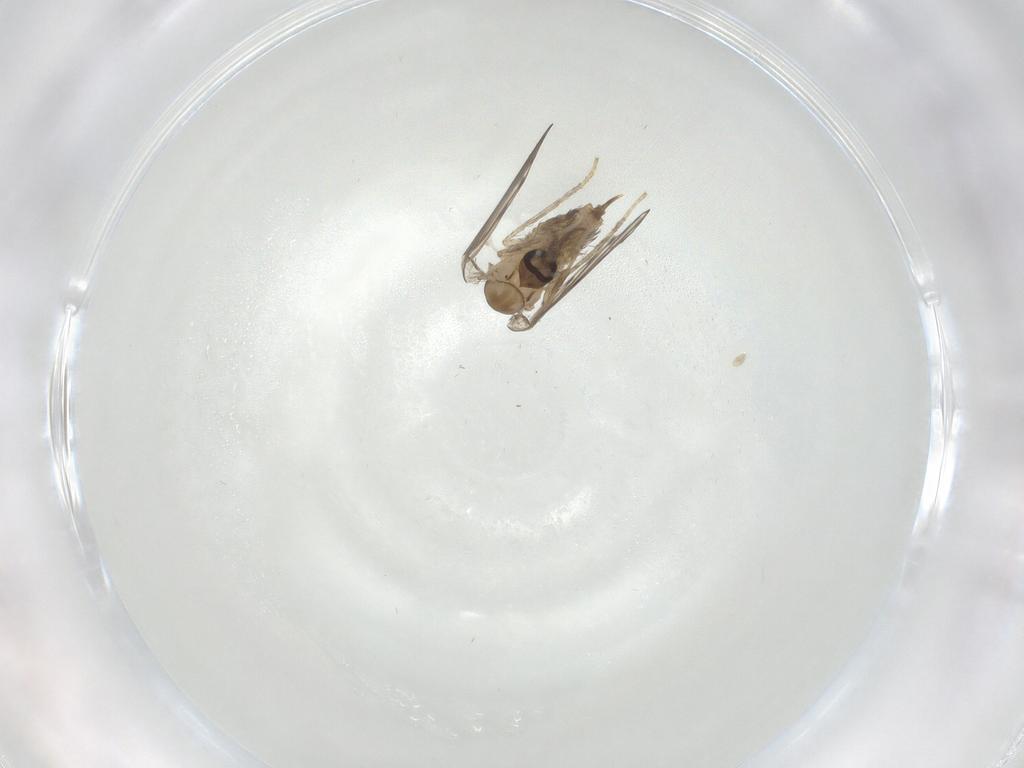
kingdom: Animalia
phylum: Arthropoda
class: Insecta
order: Diptera
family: Psychodidae
